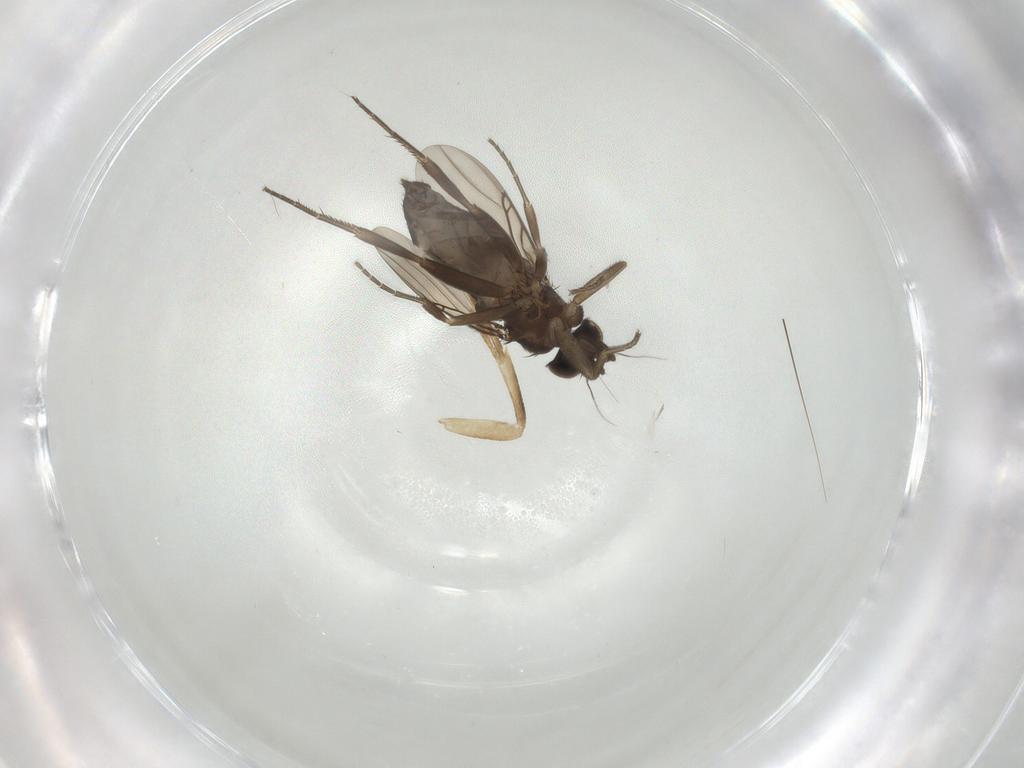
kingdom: Animalia
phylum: Arthropoda
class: Insecta
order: Diptera
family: Phoridae
